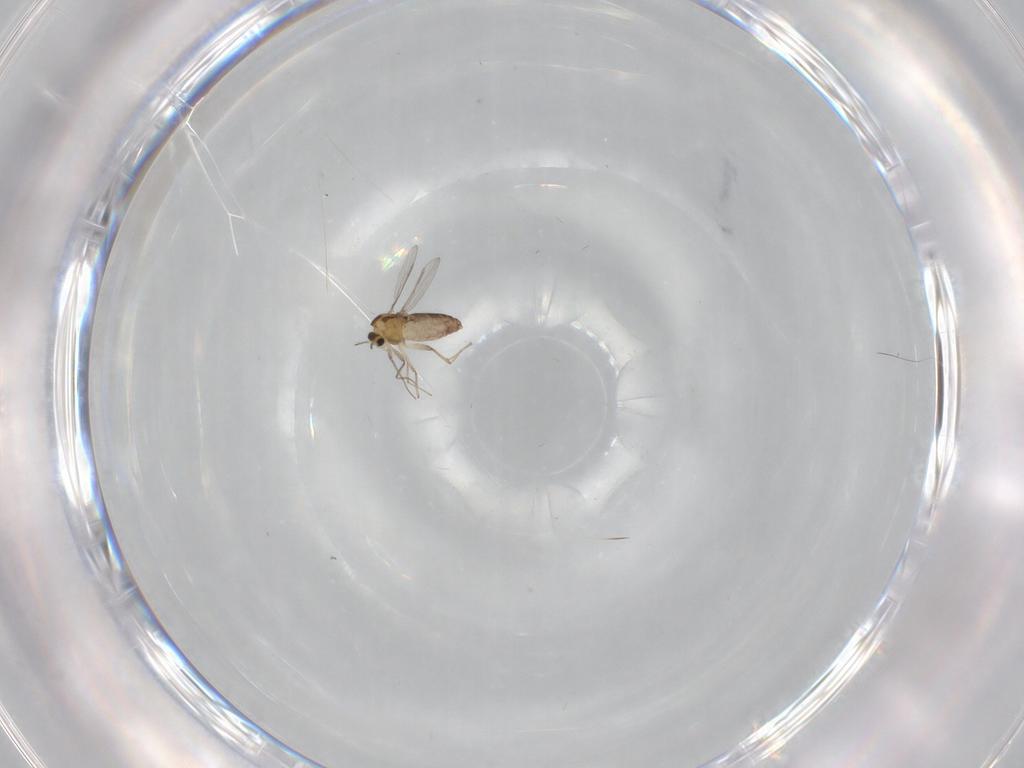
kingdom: Animalia
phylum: Arthropoda
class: Insecta
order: Diptera
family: Chironomidae
